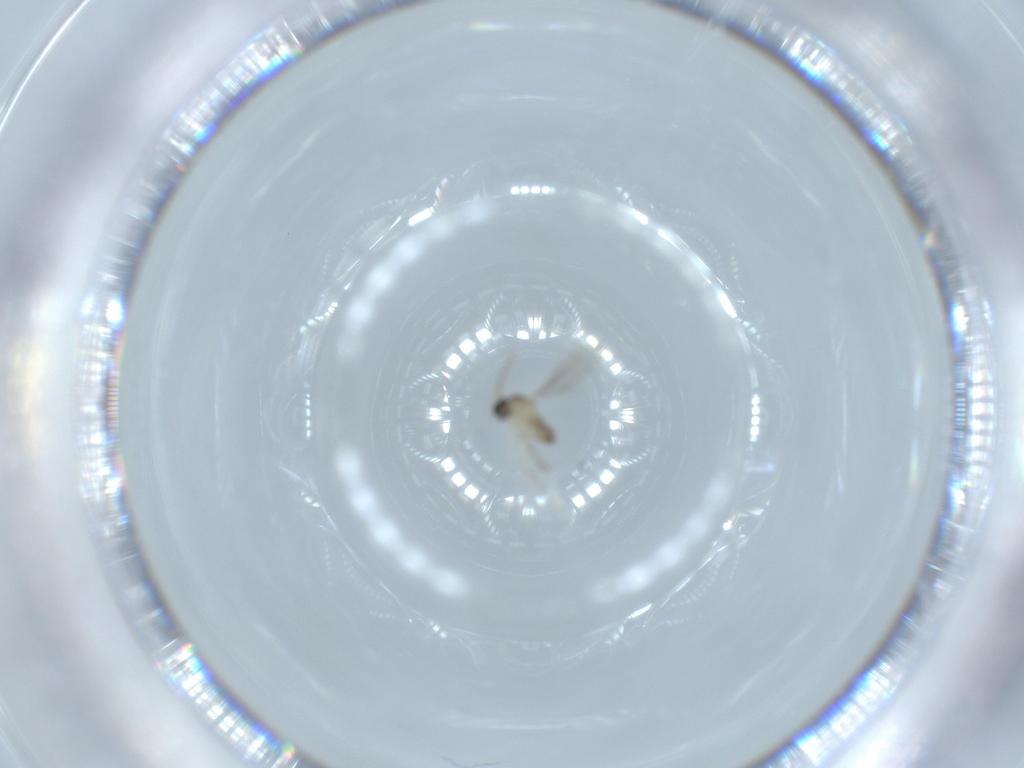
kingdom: Animalia
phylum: Arthropoda
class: Insecta
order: Diptera
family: Cecidomyiidae
